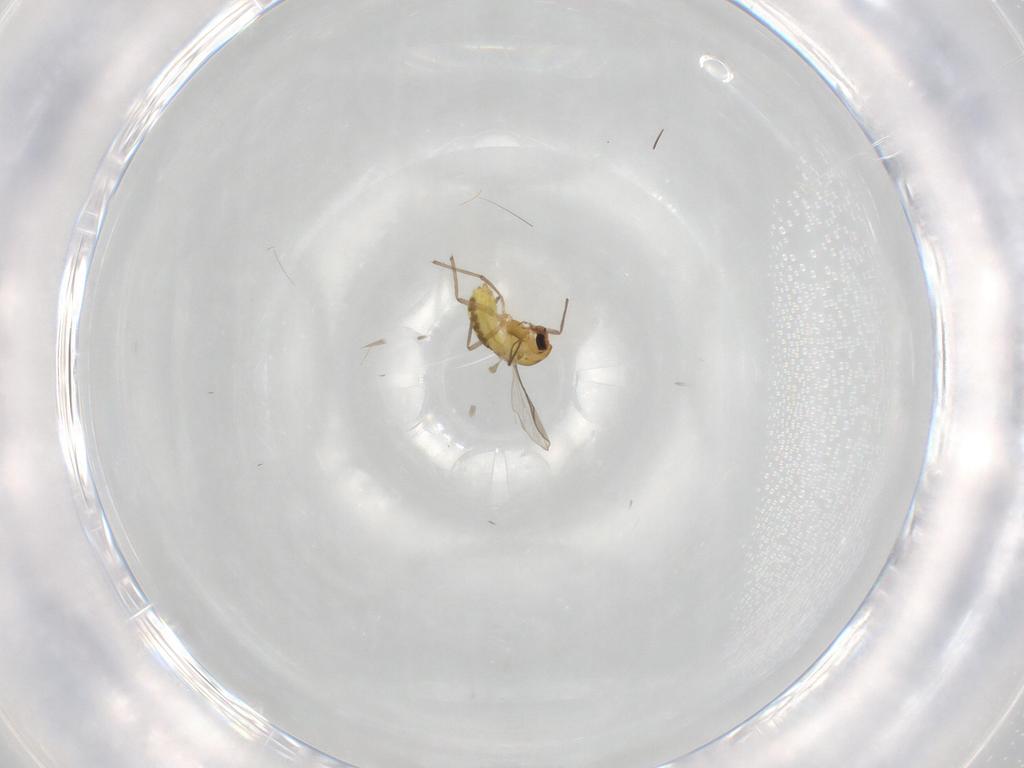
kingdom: Animalia
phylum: Arthropoda
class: Insecta
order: Diptera
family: Chironomidae
